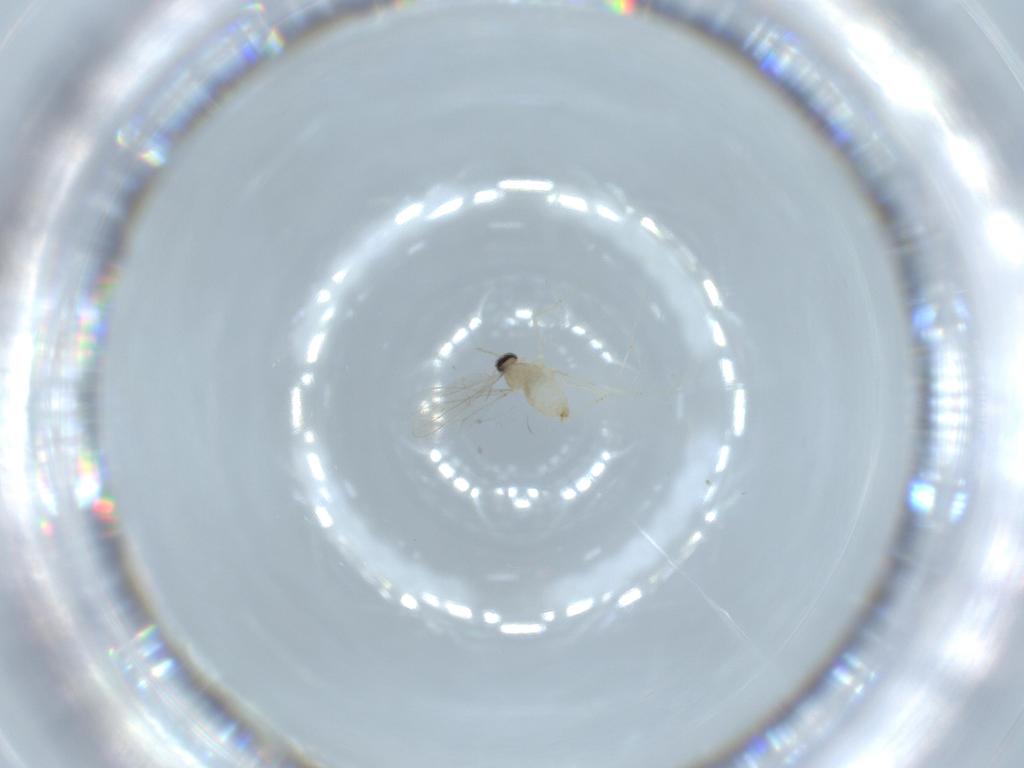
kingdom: Animalia
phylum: Arthropoda
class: Insecta
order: Diptera
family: Cecidomyiidae
